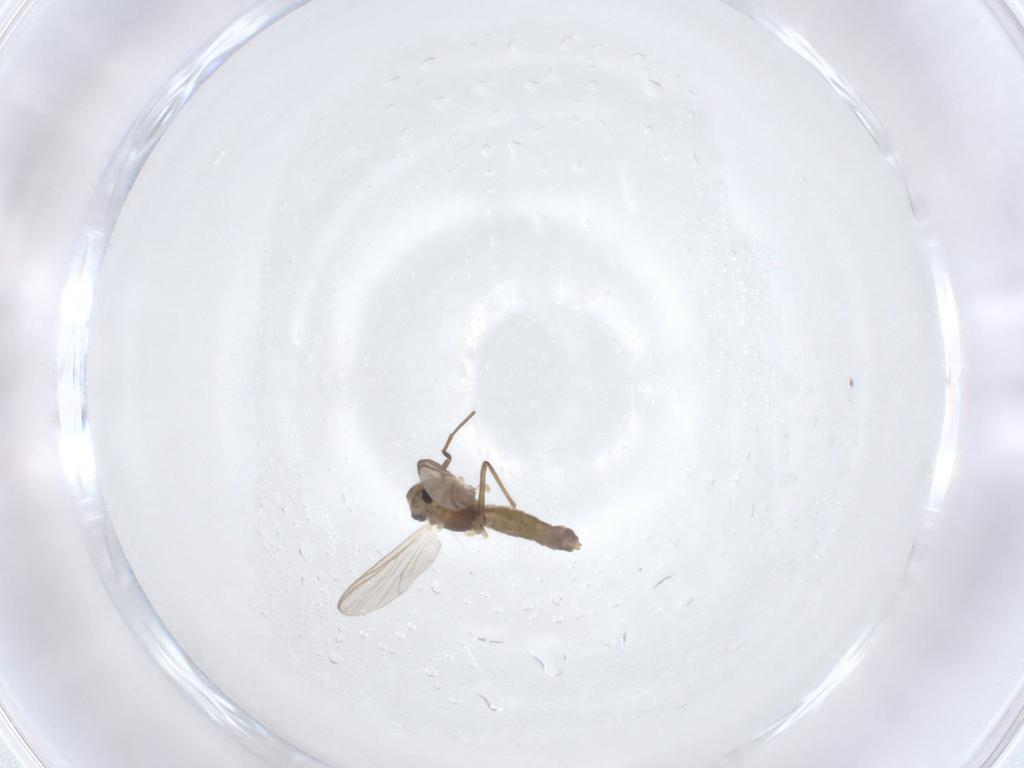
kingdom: Animalia
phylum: Arthropoda
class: Insecta
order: Diptera
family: Chironomidae
